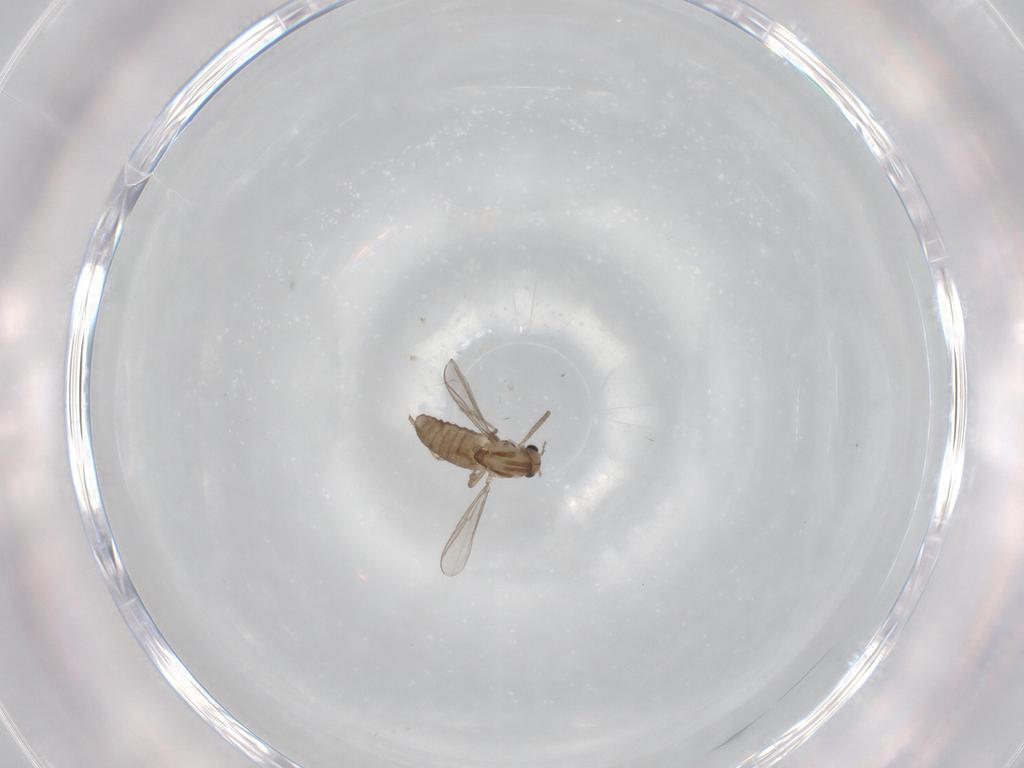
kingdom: Animalia
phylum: Arthropoda
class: Insecta
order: Diptera
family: Chironomidae
